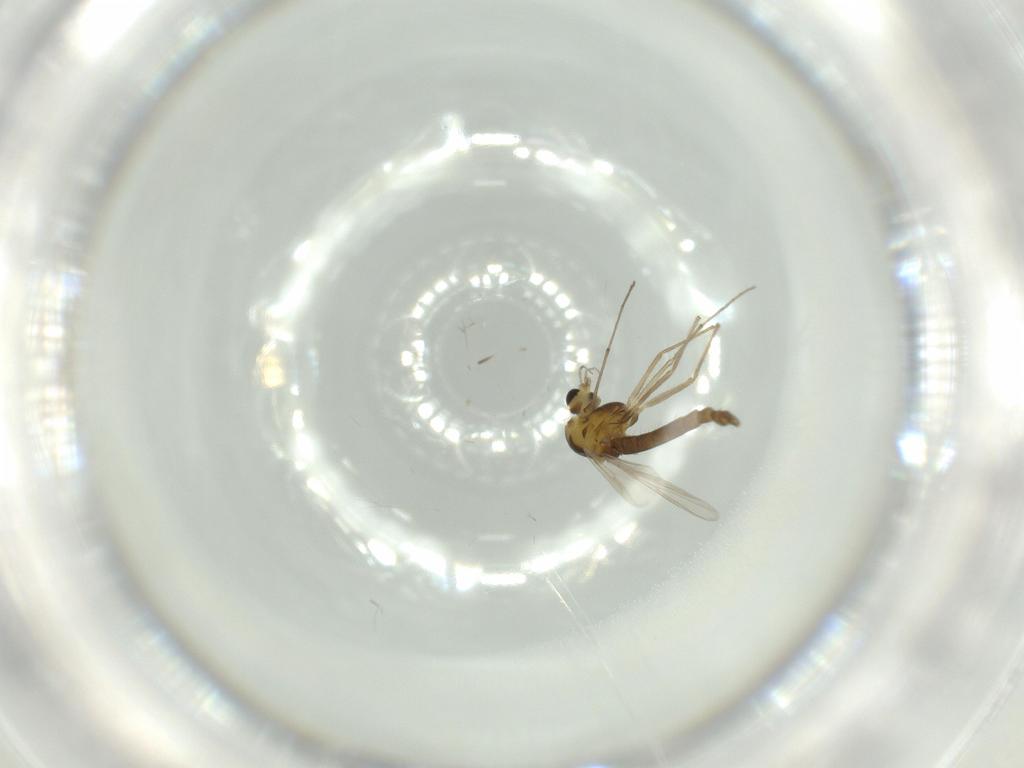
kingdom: Animalia
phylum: Arthropoda
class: Insecta
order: Diptera
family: Chironomidae
